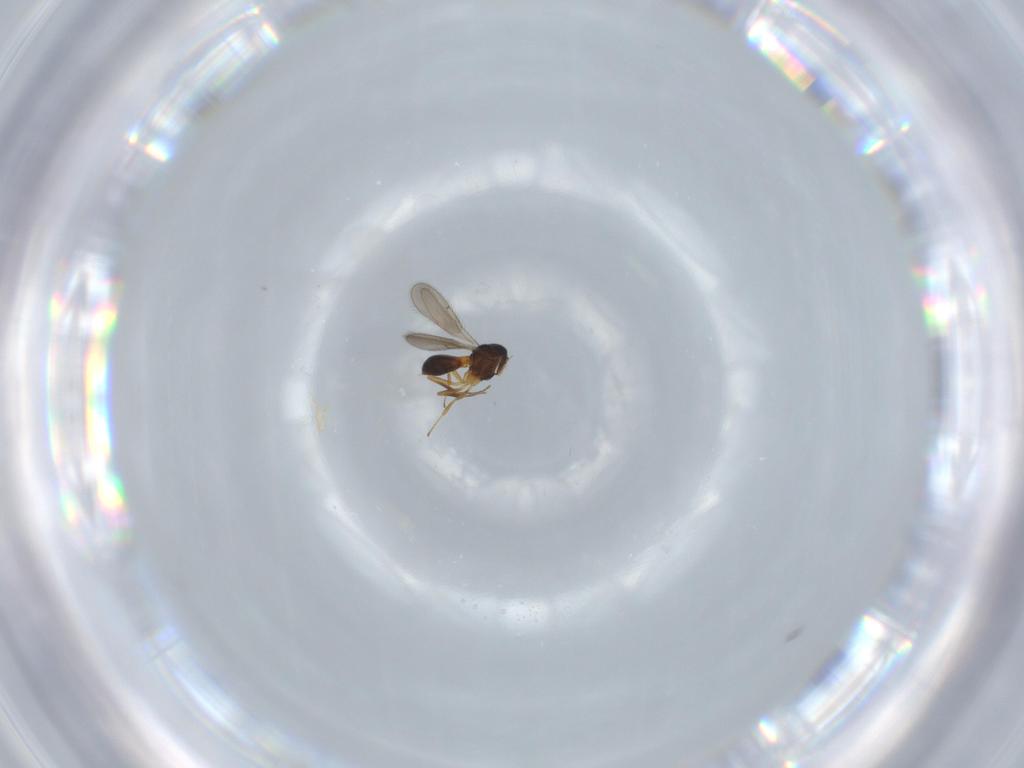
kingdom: Animalia
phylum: Arthropoda
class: Insecta
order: Hymenoptera
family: Scelionidae
